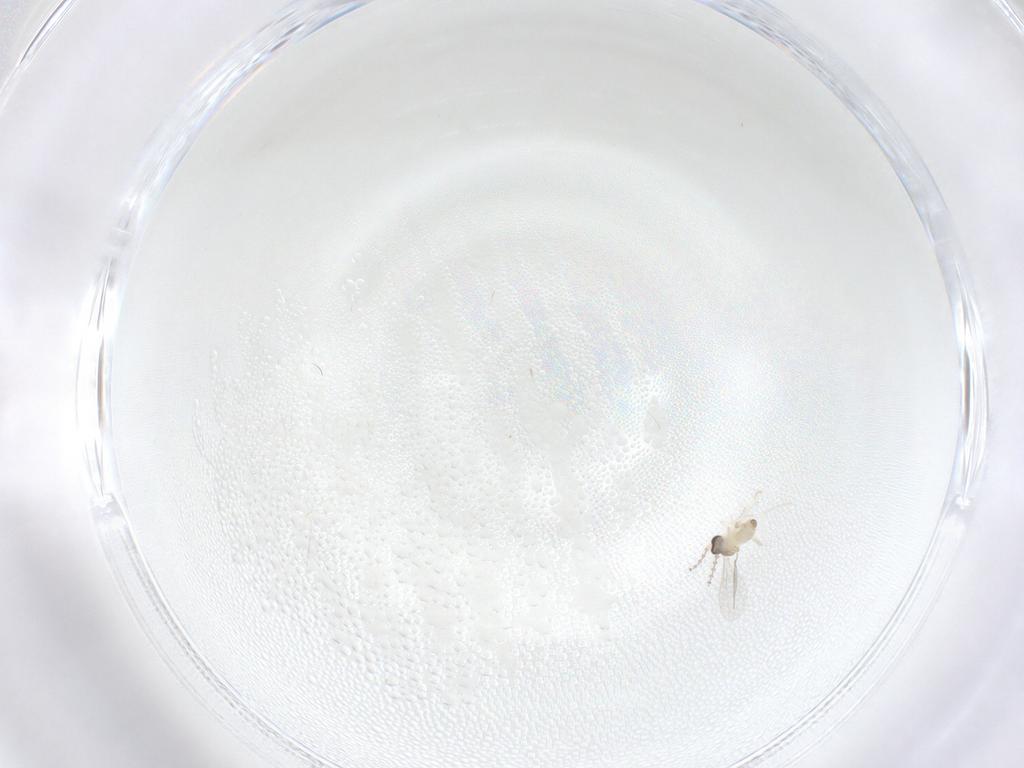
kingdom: Animalia
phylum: Arthropoda
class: Insecta
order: Diptera
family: Cecidomyiidae
